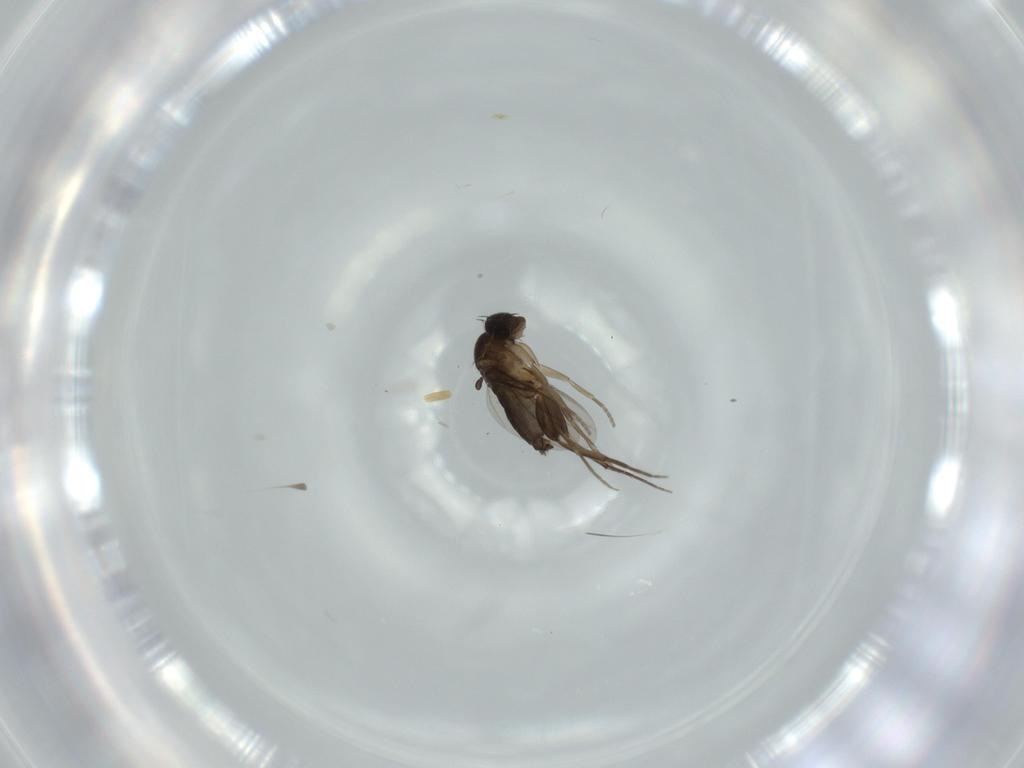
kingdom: Animalia
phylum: Arthropoda
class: Insecta
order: Diptera
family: Phoridae
